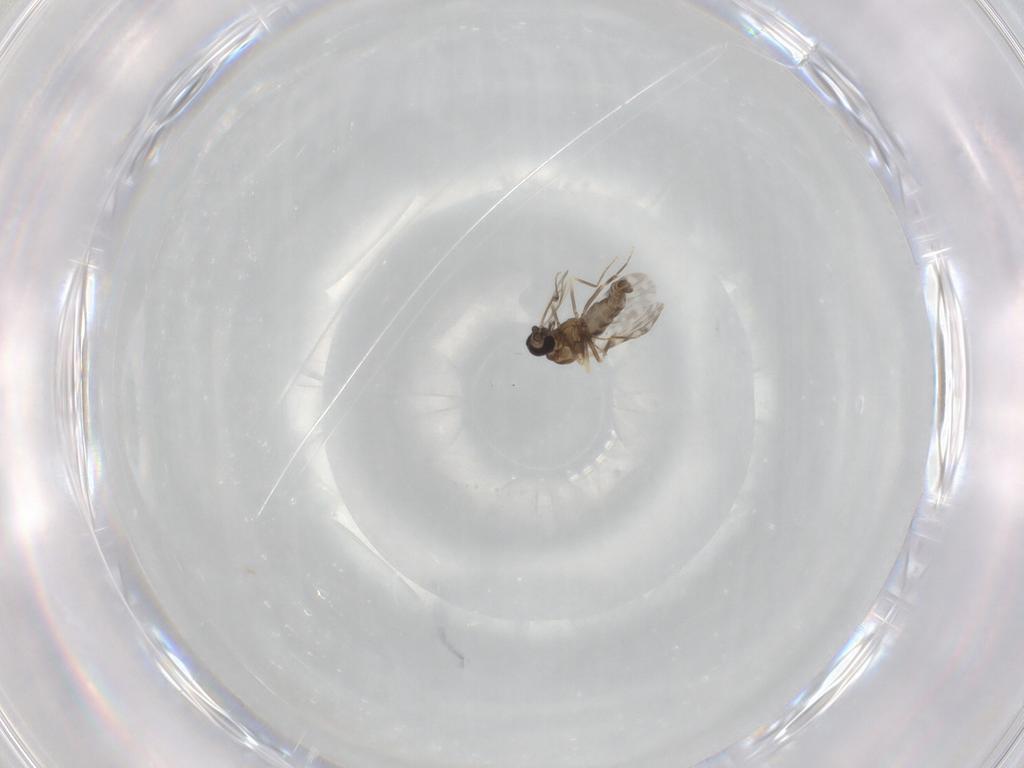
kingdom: Animalia
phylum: Arthropoda
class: Insecta
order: Diptera
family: Ceratopogonidae
